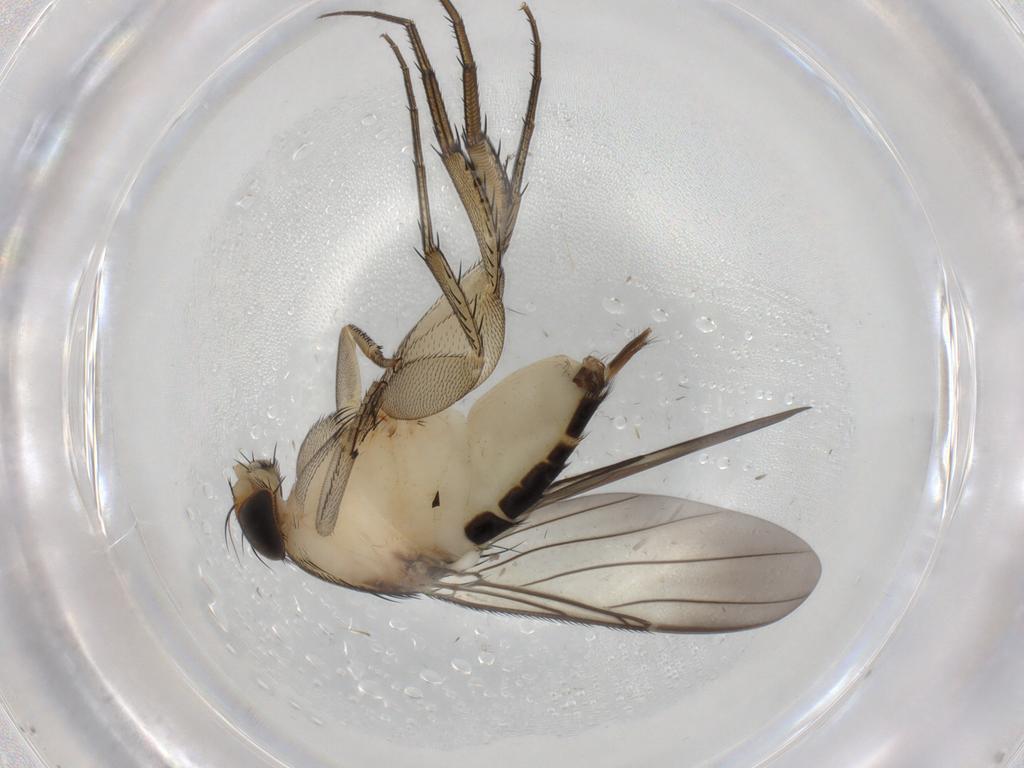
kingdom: Animalia
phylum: Arthropoda
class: Insecta
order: Diptera
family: Phoridae
